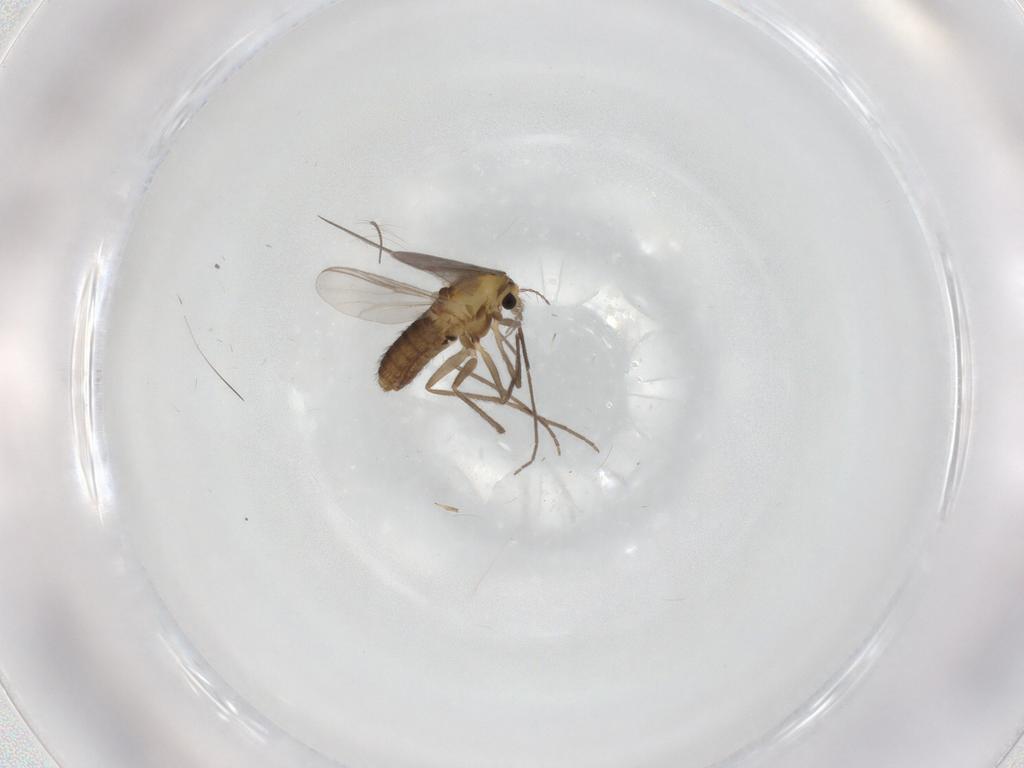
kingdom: Animalia
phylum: Arthropoda
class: Insecta
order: Diptera
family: Chironomidae
